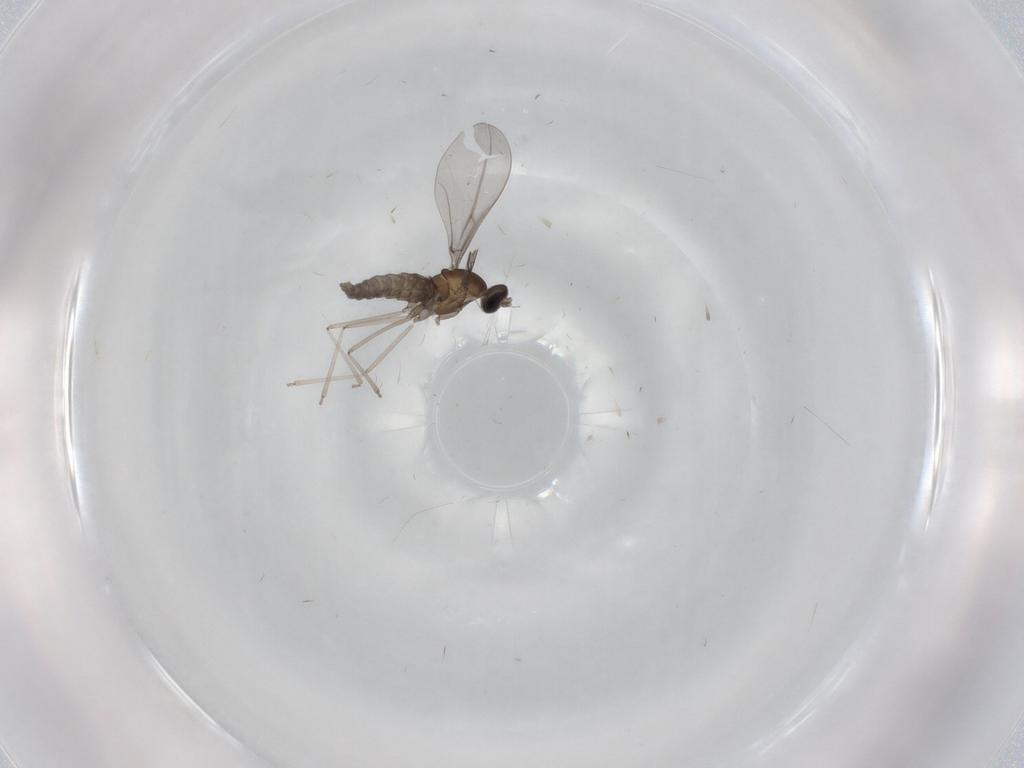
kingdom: Animalia
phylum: Arthropoda
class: Insecta
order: Diptera
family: Cecidomyiidae
